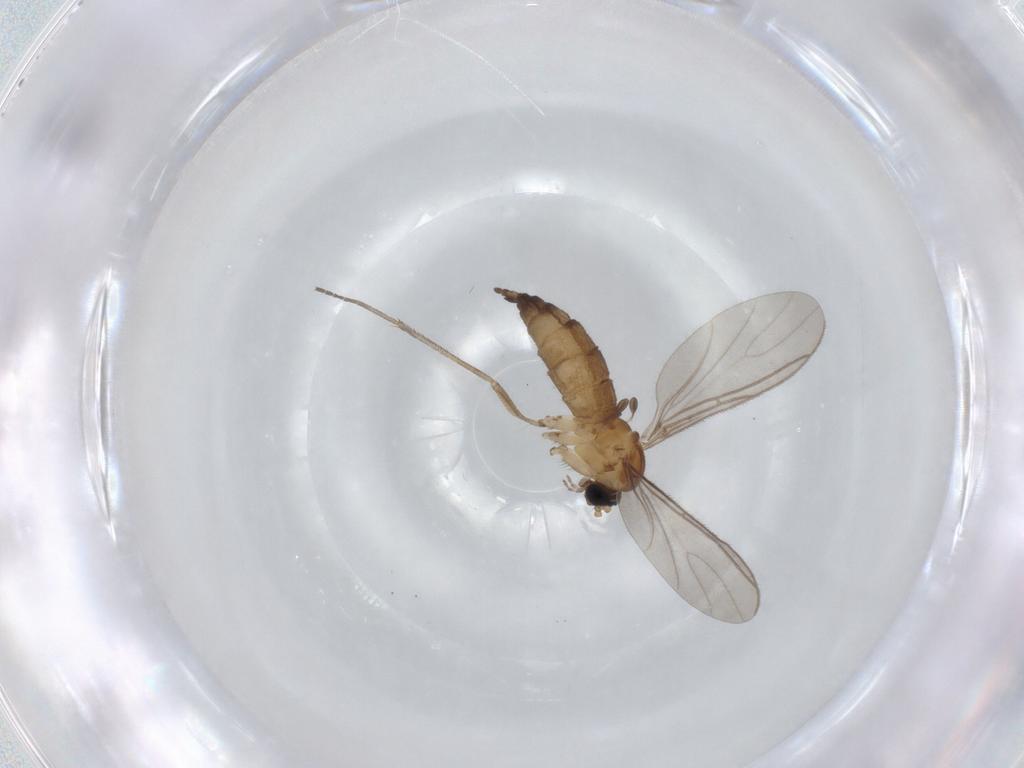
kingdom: Animalia
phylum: Arthropoda
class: Insecta
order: Diptera
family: Sciaridae
